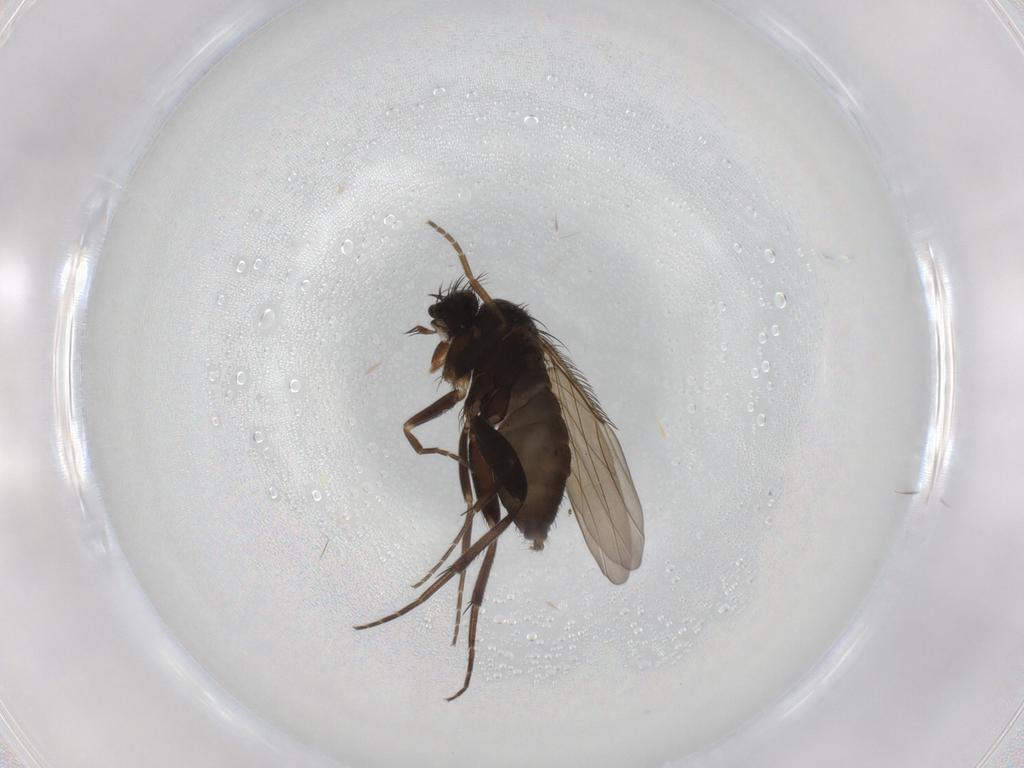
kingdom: Animalia
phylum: Arthropoda
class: Insecta
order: Diptera
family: Phoridae
